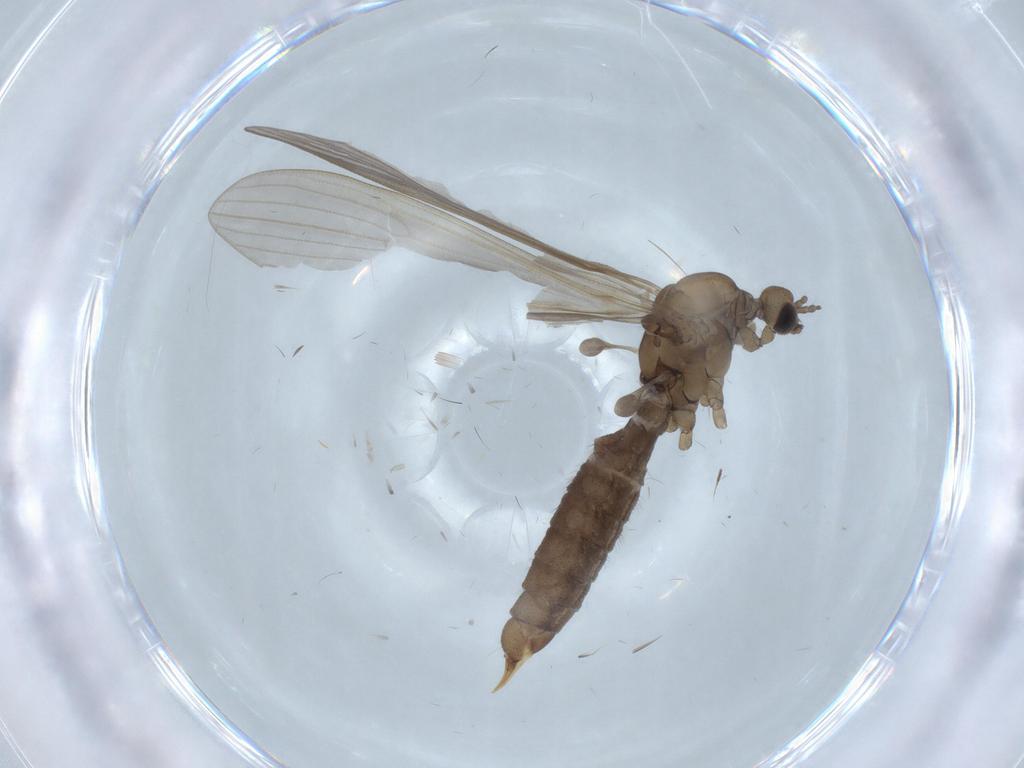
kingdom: Animalia
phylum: Arthropoda
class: Insecta
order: Diptera
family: Limoniidae
